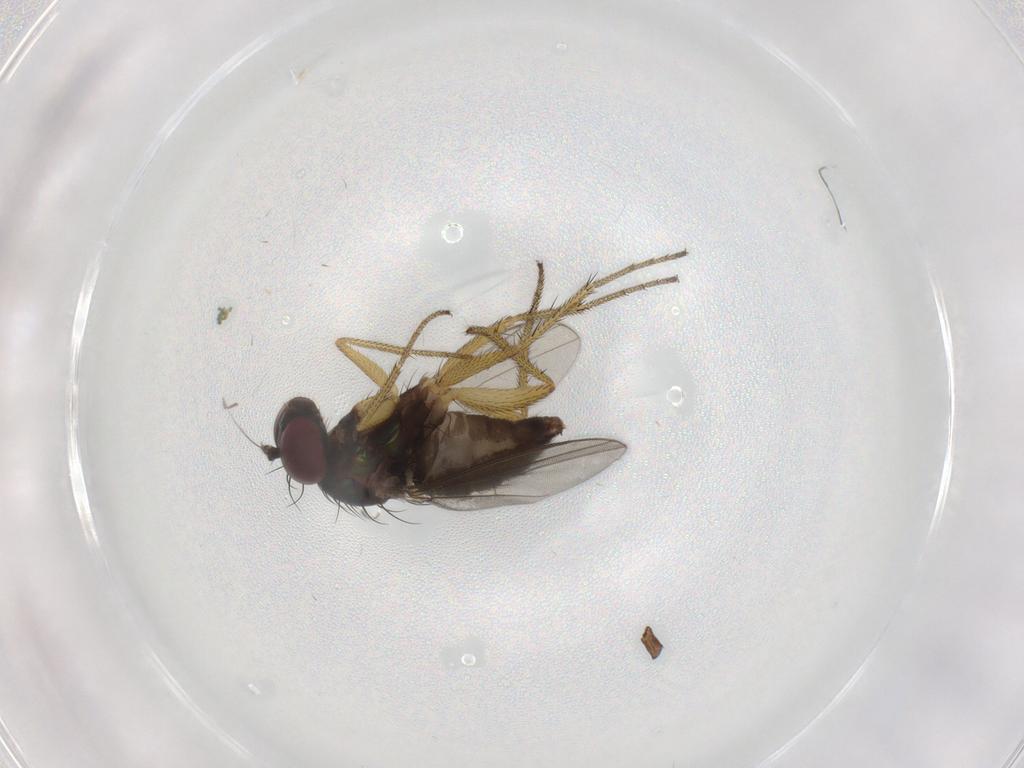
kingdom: Animalia
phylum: Arthropoda
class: Insecta
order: Diptera
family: Dolichopodidae
